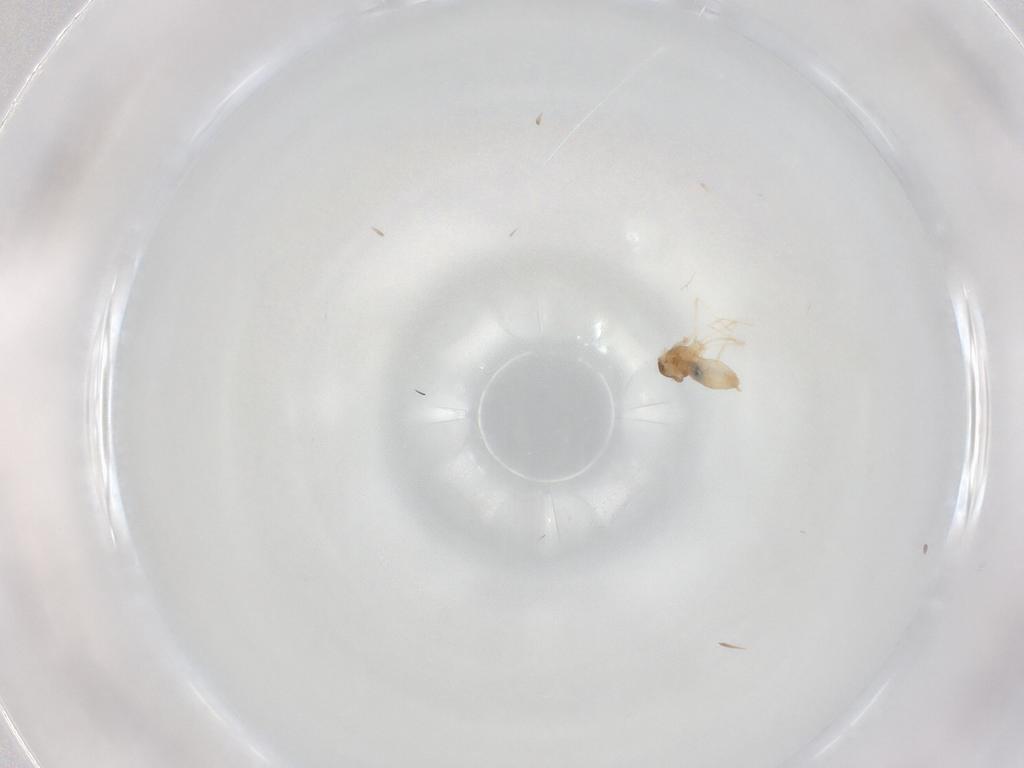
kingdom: Animalia
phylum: Arthropoda
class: Insecta
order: Diptera
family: Cecidomyiidae
